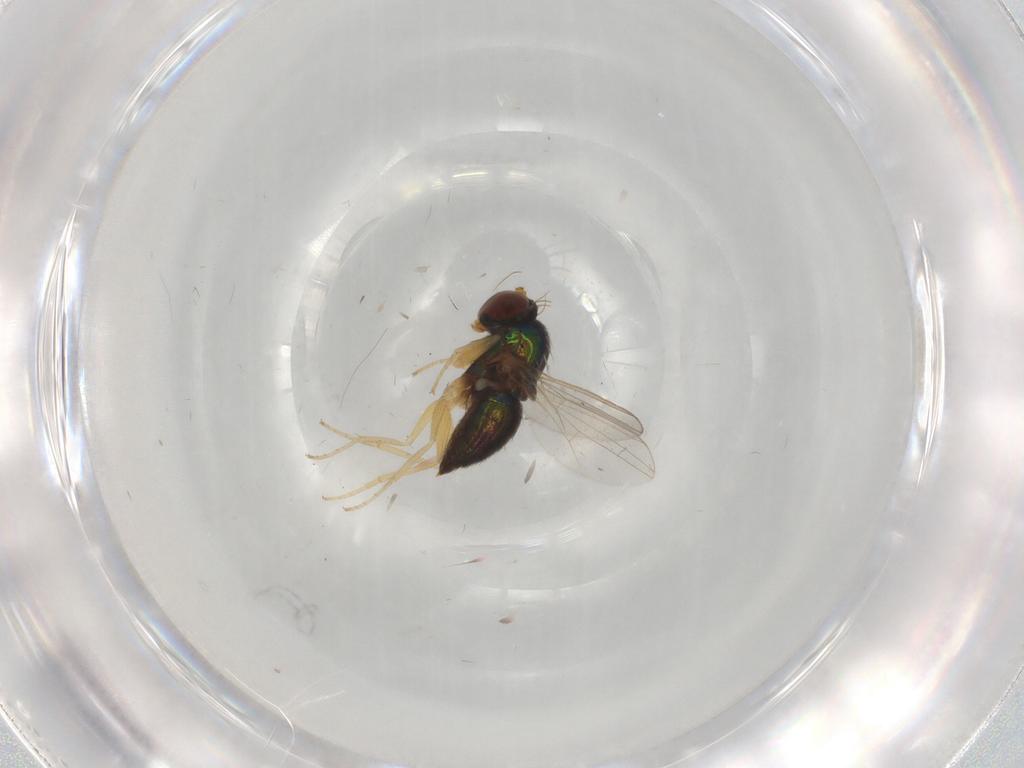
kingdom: Animalia
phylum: Arthropoda
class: Insecta
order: Diptera
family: Dolichopodidae
